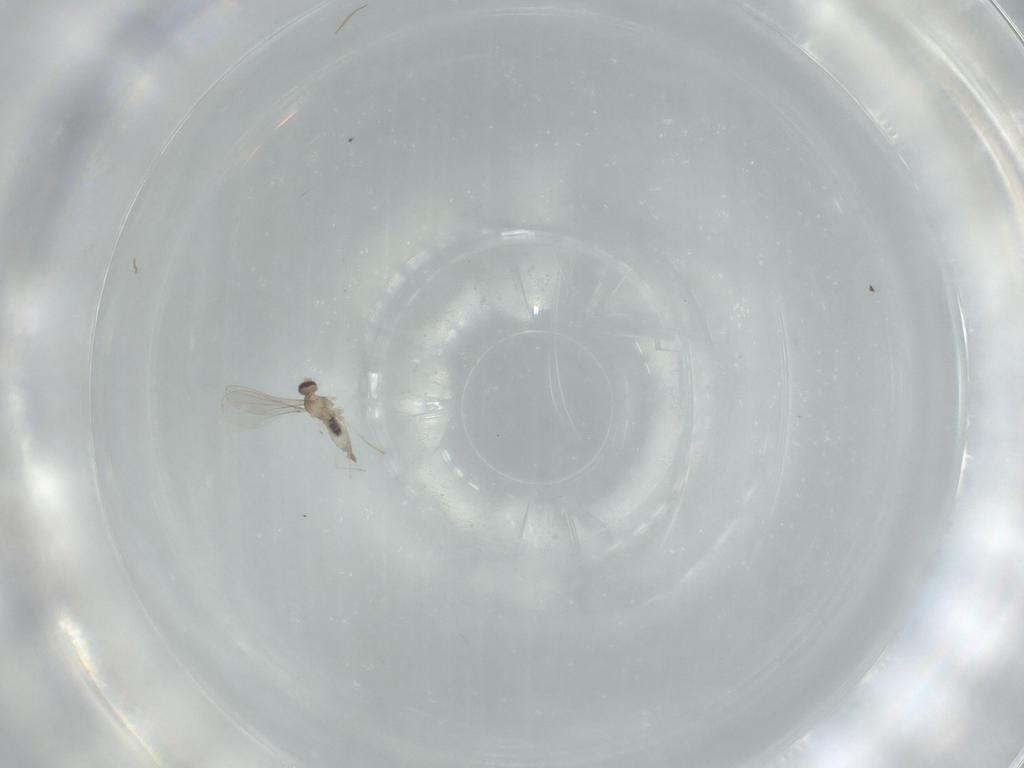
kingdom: Animalia
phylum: Arthropoda
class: Insecta
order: Diptera
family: Cecidomyiidae
